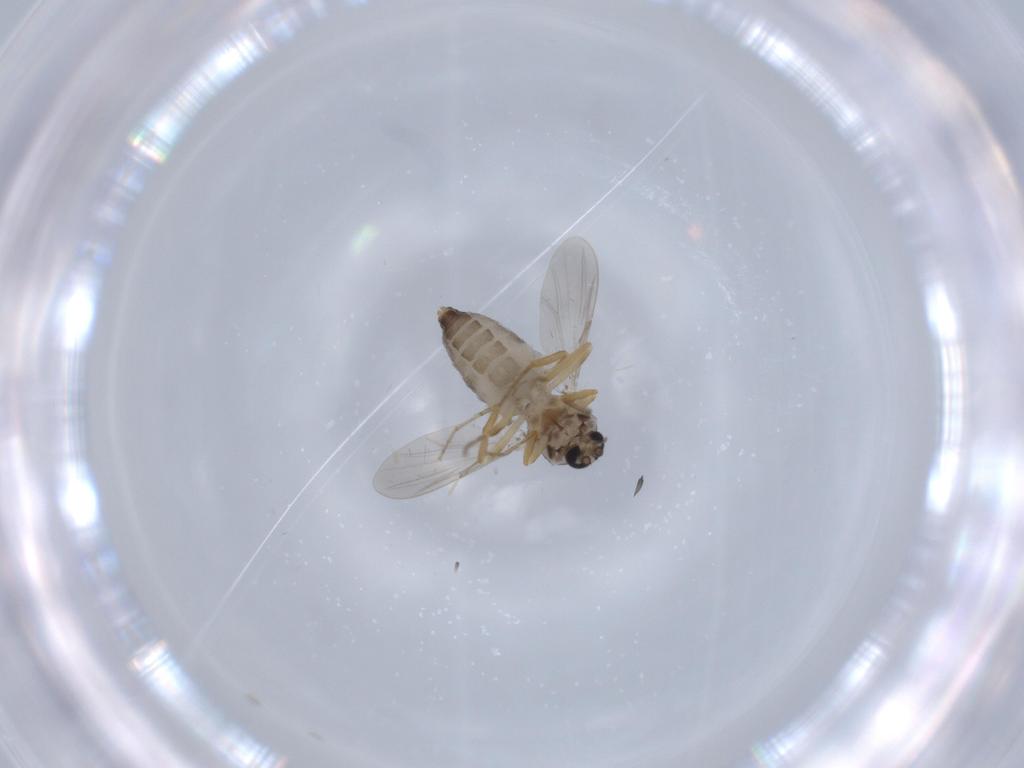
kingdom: Animalia
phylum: Arthropoda
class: Insecta
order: Diptera
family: Ceratopogonidae
